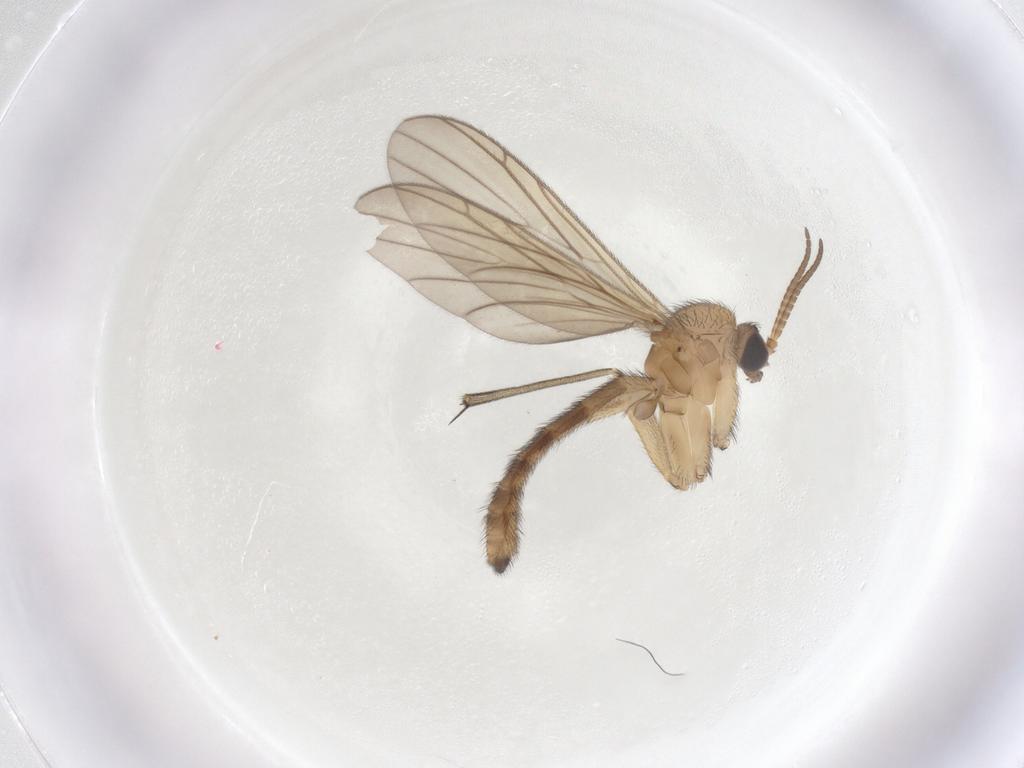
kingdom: Animalia
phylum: Arthropoda
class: Insecta
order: Diptera
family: Keroplatidae
